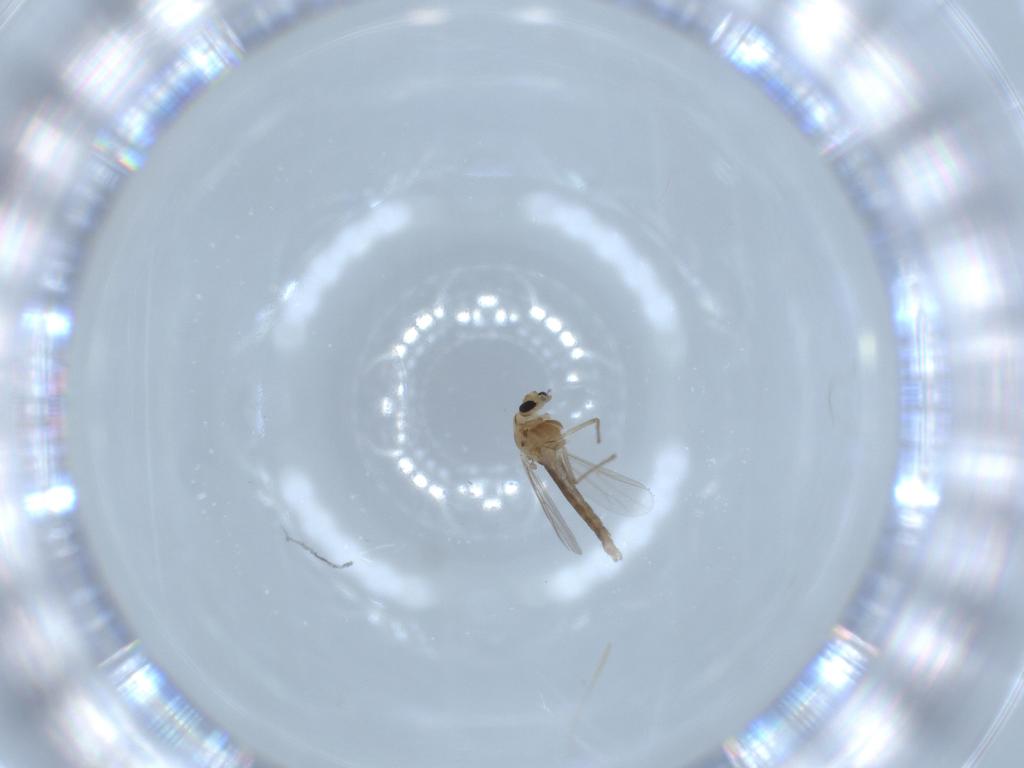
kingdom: Animalia
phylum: Arthropoda
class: Insecta
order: Diptera
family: Chironomidae
